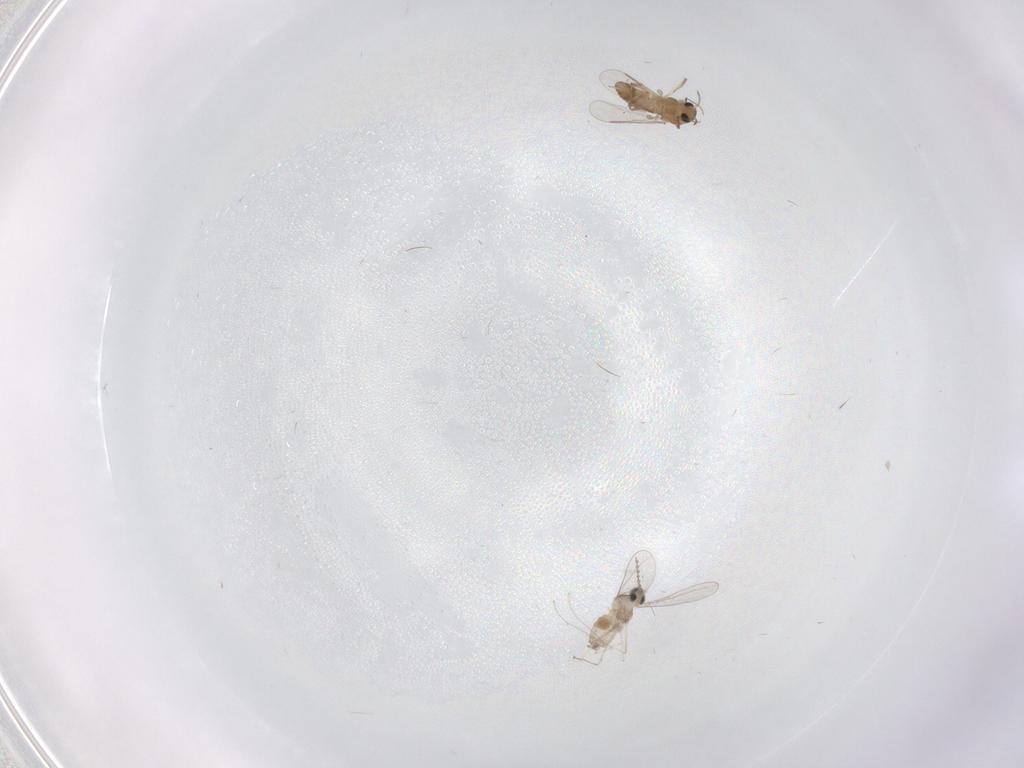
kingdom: Animalia
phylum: Arthropoda
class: Insecta
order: Diptera
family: Cecidomyiidae
